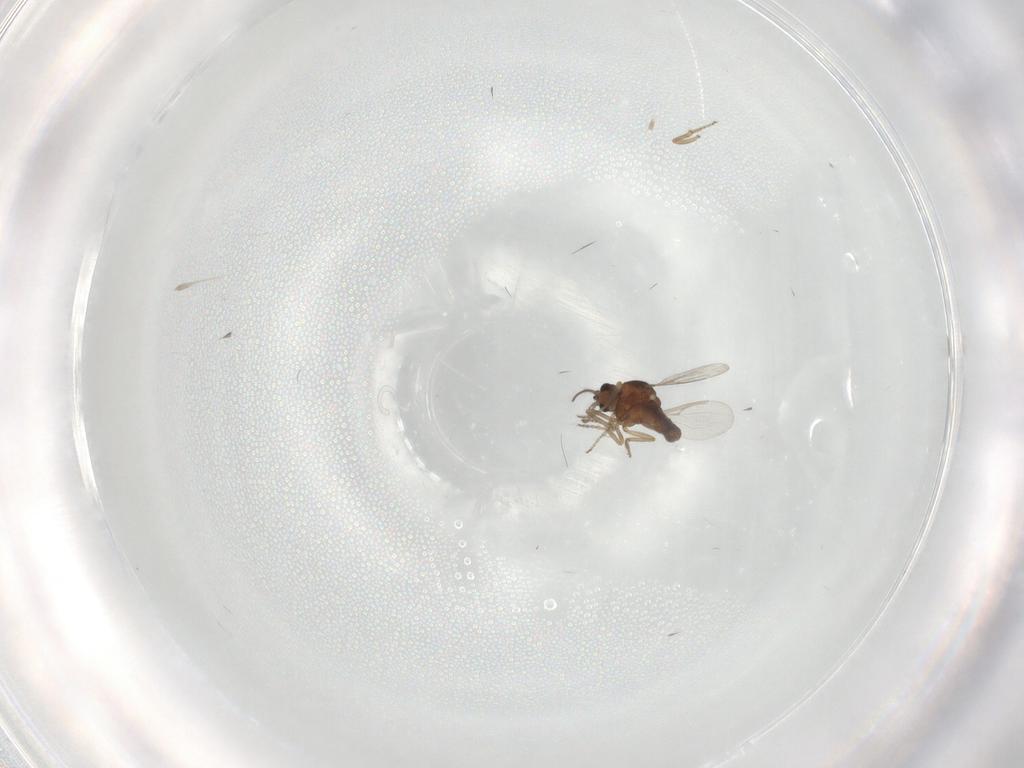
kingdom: Animalia
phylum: Arthropoda
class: Insecta
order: Diptera
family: Ceratopogonidae
